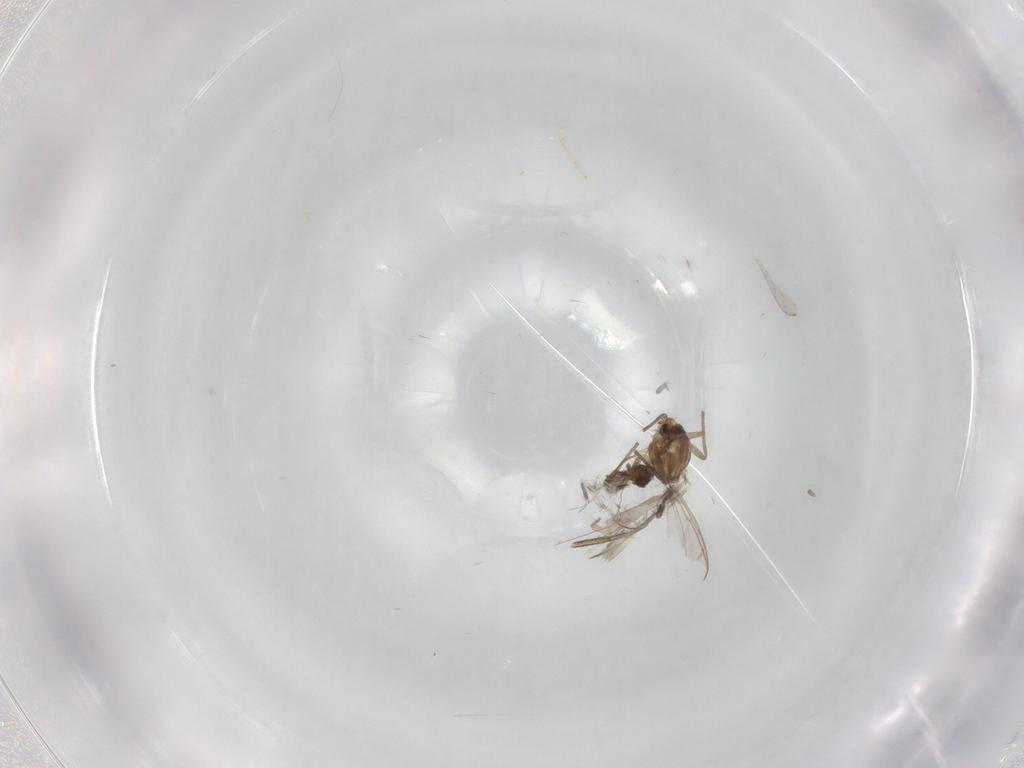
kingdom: Animalia
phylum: Arthropoda
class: Insecta
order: Diptera
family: Chironomidae
